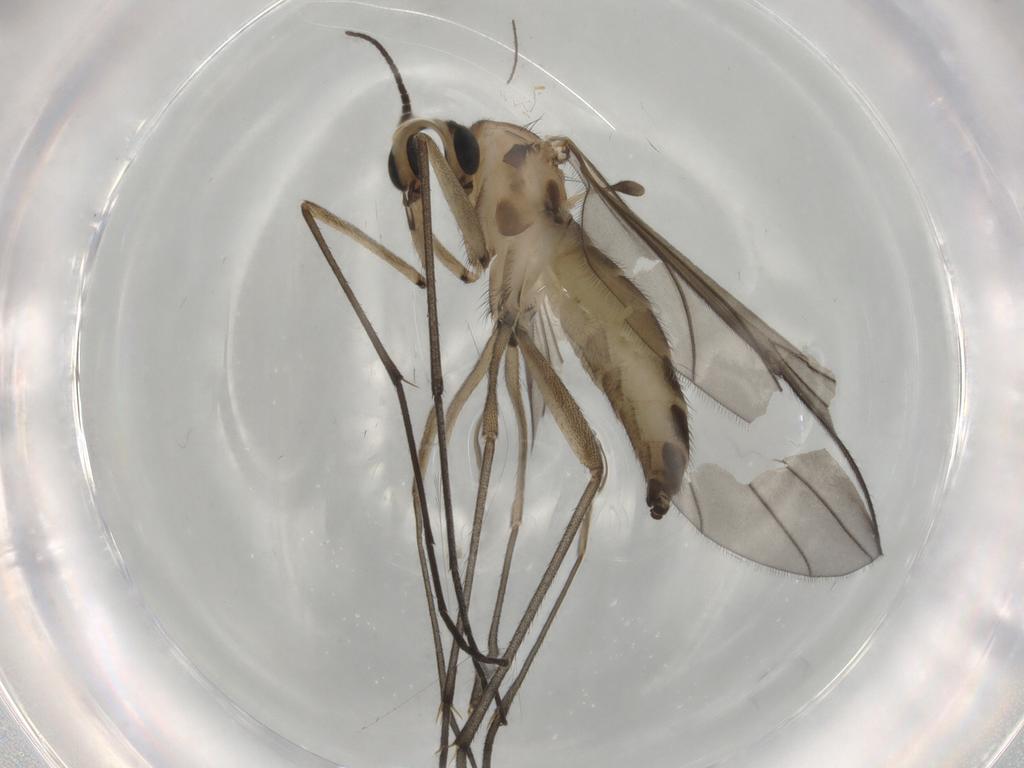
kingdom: Animalia
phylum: Arthropoda
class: Insecta
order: Diptera
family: Sciaridae
